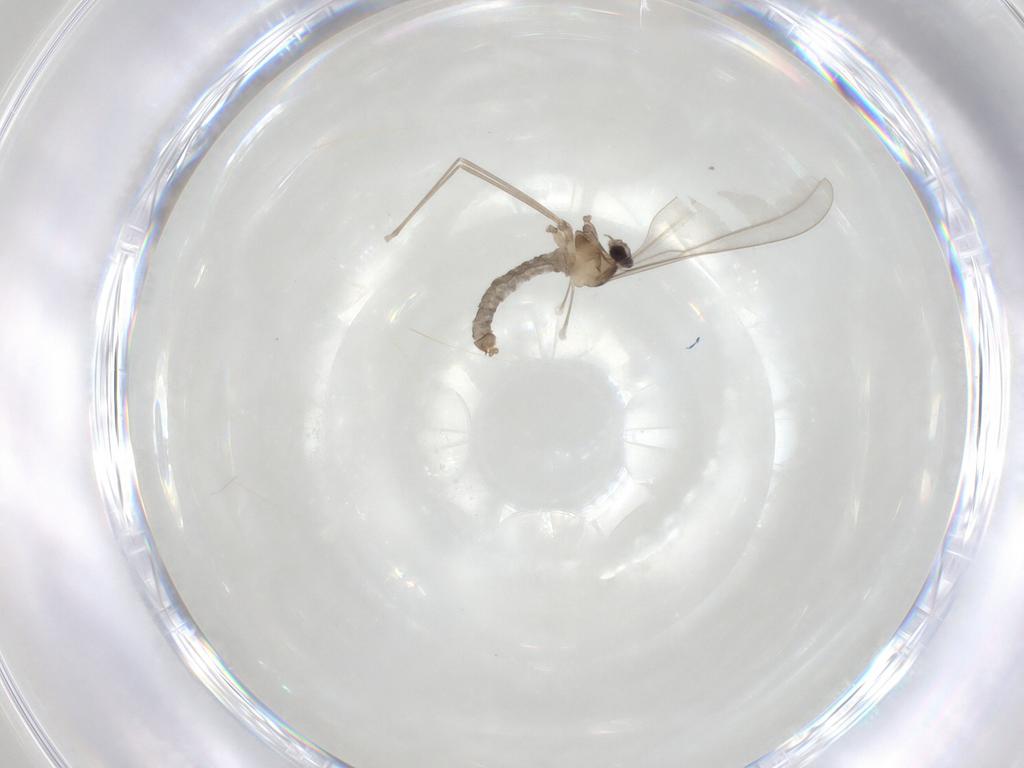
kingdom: Animalia
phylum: Arthropoda
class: Insecta
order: Diptera
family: Cecidomyiidae
